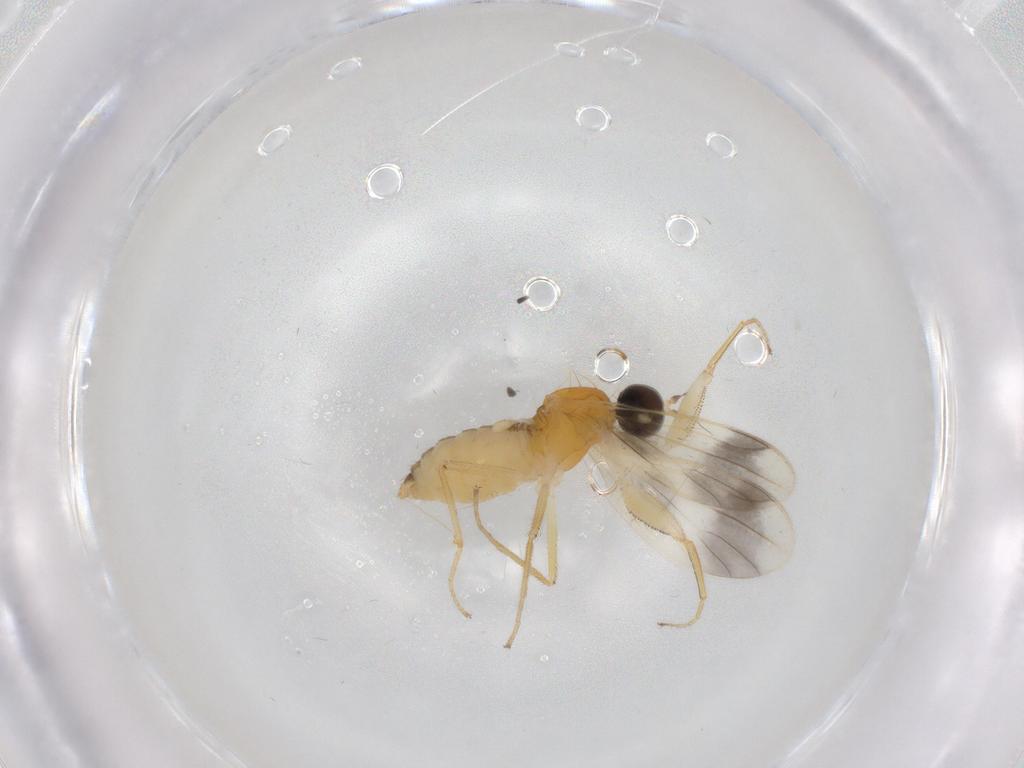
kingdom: Animalia
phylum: Arthropoda
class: Insecta
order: Diptera
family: Empididae
